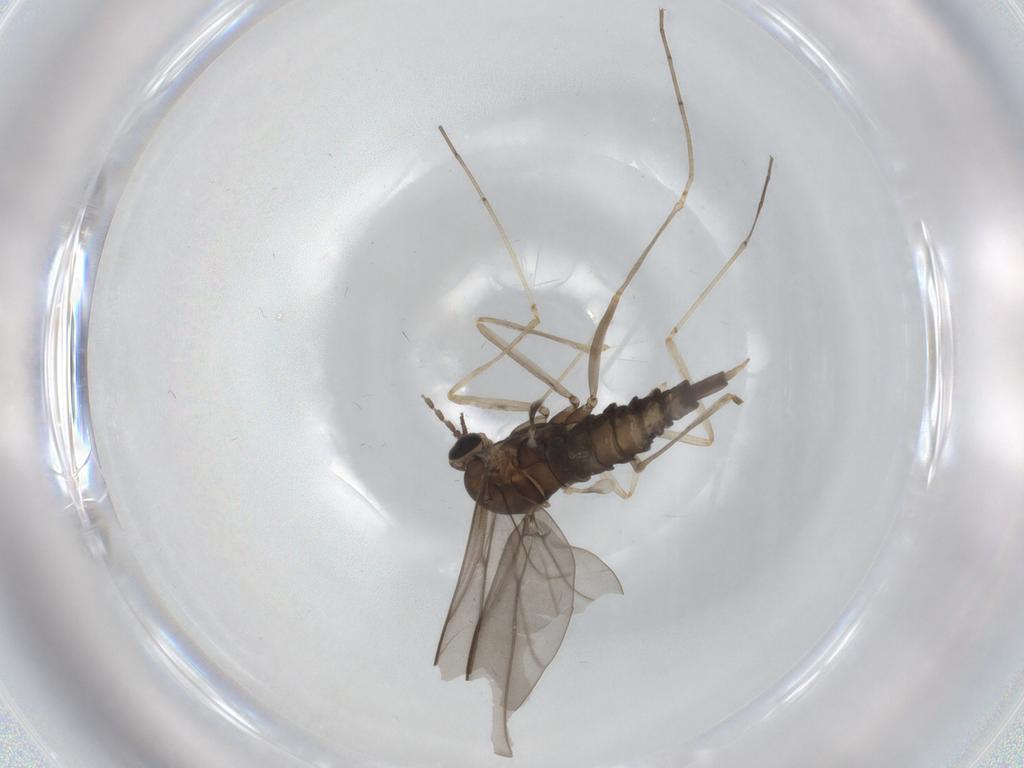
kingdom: Animalia
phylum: Arthropoda
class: Insecta
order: Diptera
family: Cecidomyiidae
